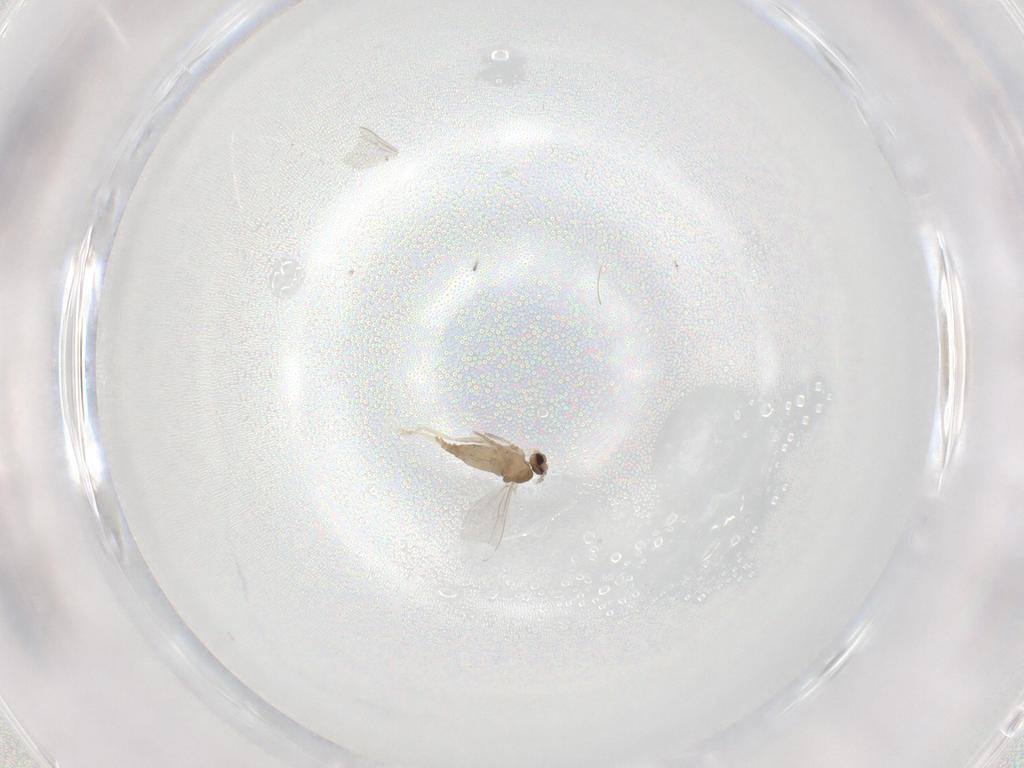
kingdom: Animalia
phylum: Arthropoda
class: Insecta
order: Diptera
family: Cecidomyiidae
